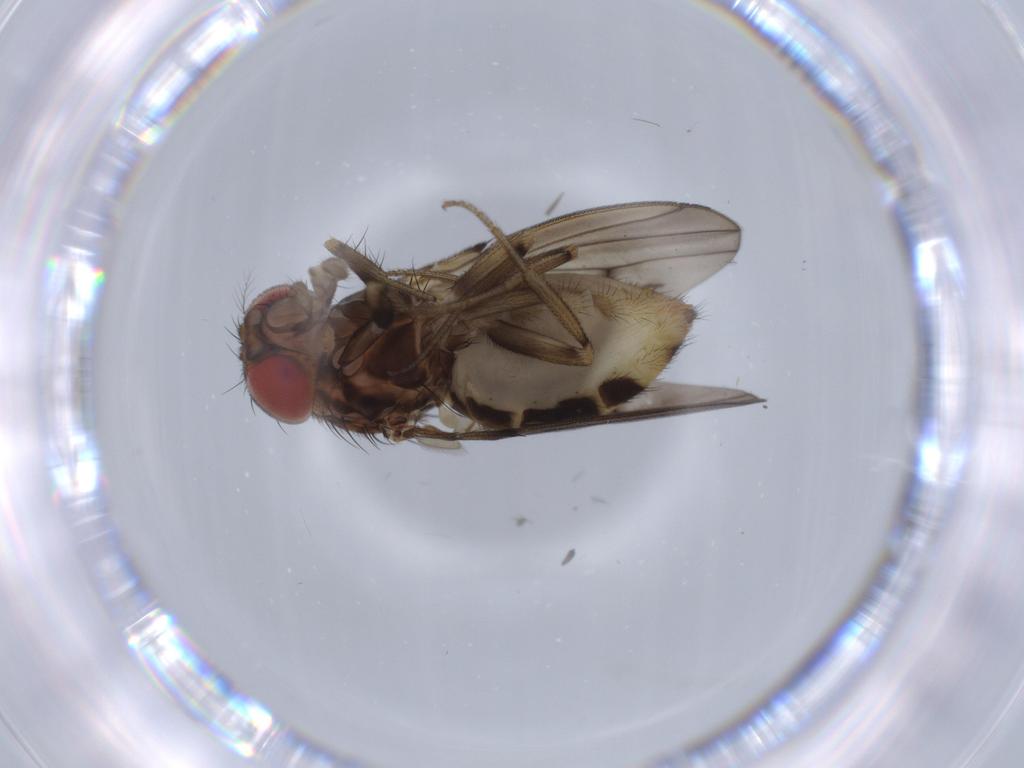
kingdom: Animalia
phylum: Arthropoda
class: Insecta
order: Diptera
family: Drosophilidae
